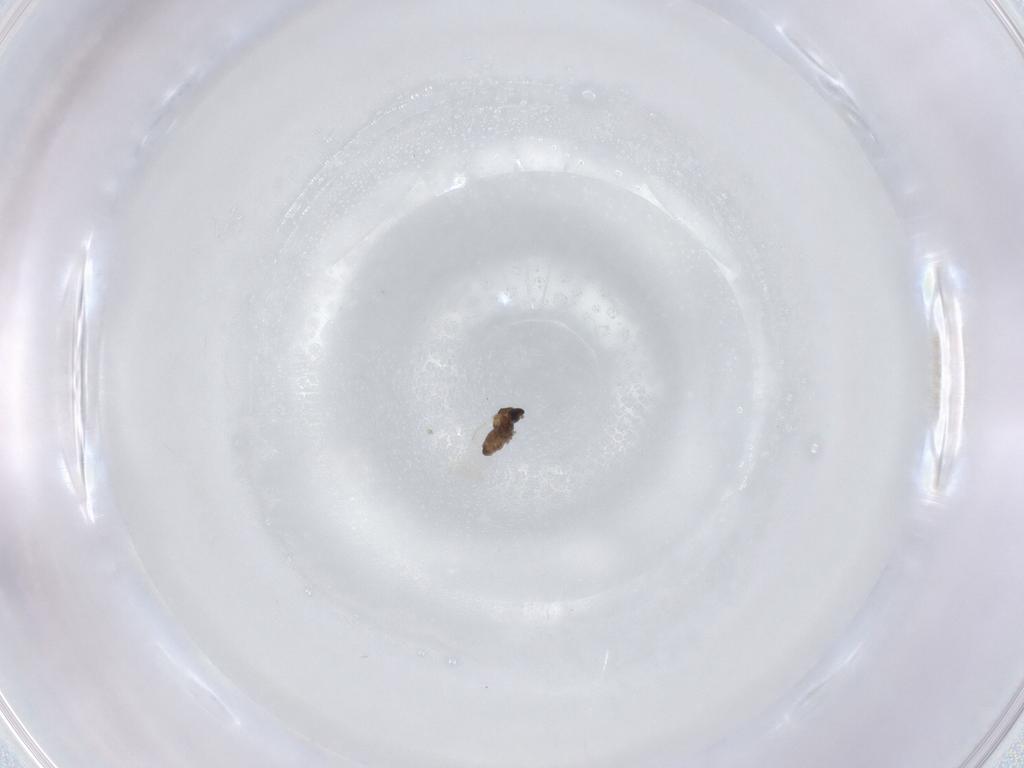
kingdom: Animalia
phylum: Arthropoda
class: Insecta
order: Diptera
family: Cecidomyiidae
